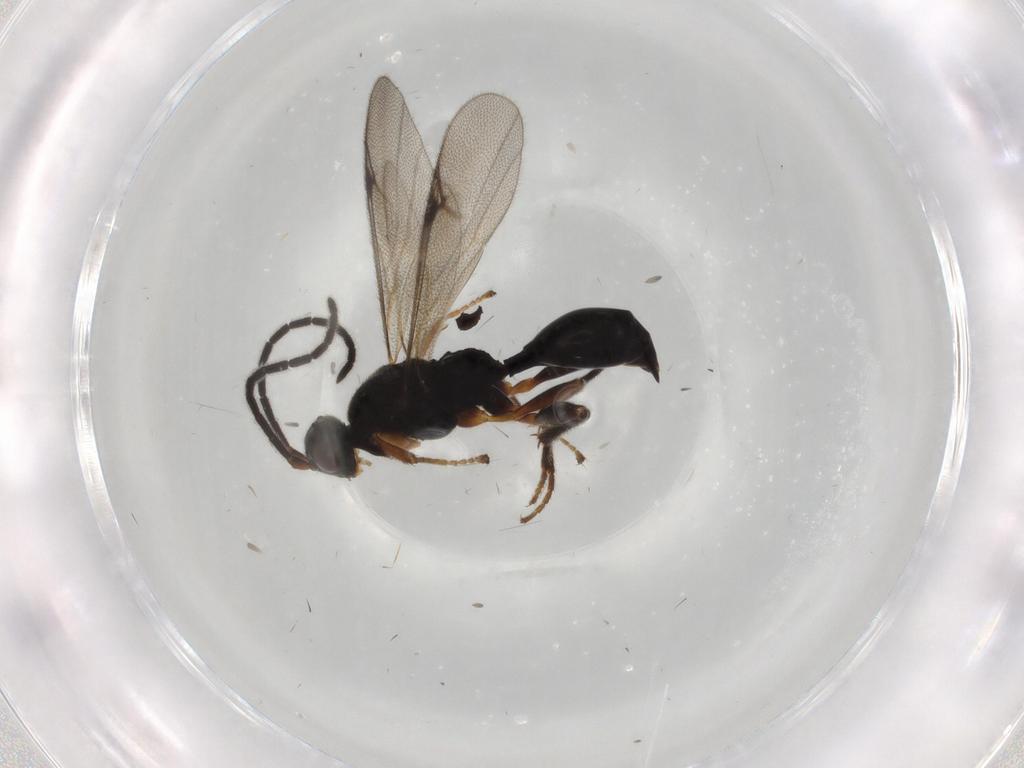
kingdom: Animalia
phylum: Arthropoda
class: Insecta
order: Hymenoptera
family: Proctotrupidae
